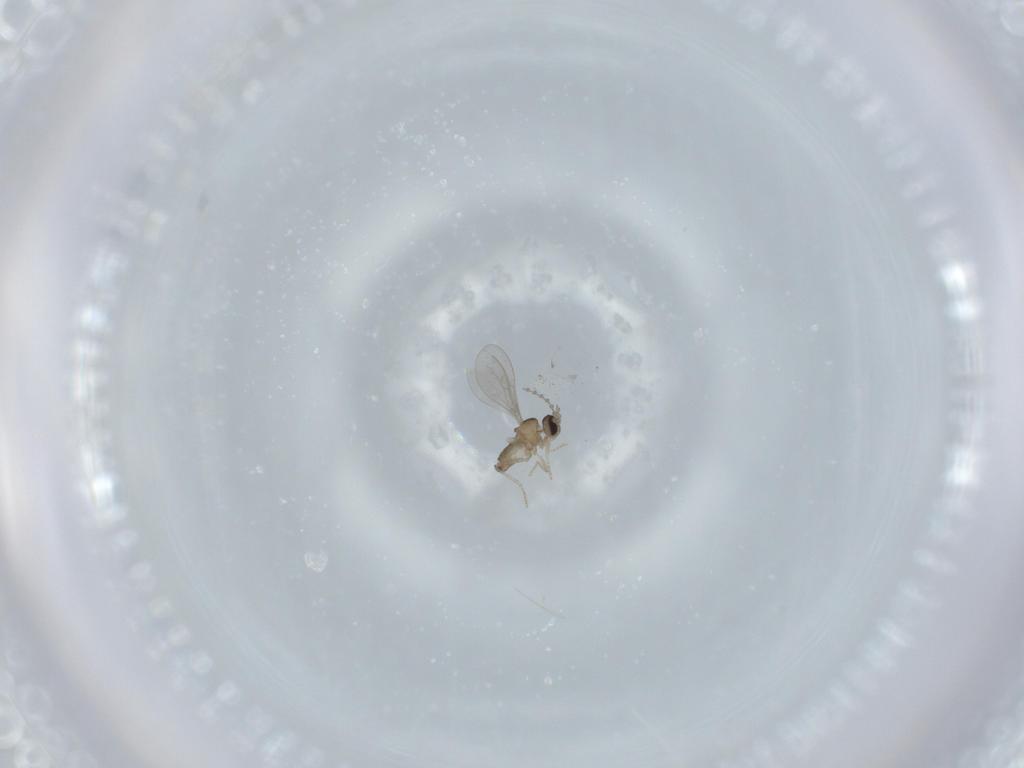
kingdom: Animalia
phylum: Arthropoda
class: Insecta
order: Diptera
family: Cecidomyiidae
